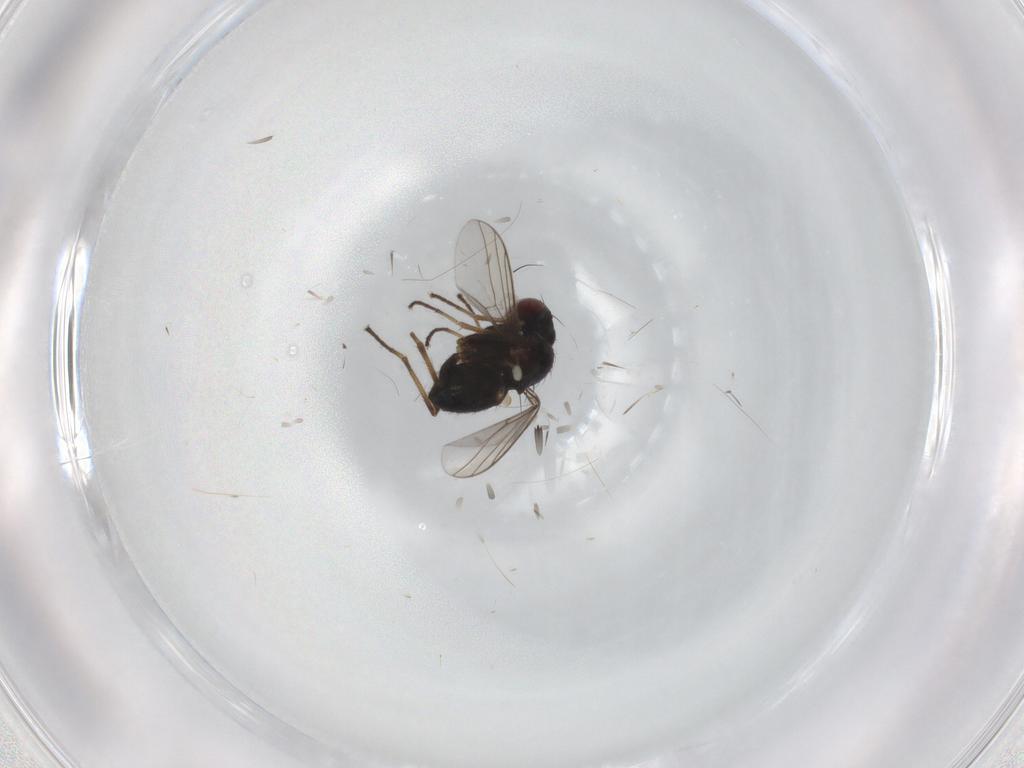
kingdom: Animalia
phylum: Arthropoda
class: Insecta
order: Diptera
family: Dolichopodidae
